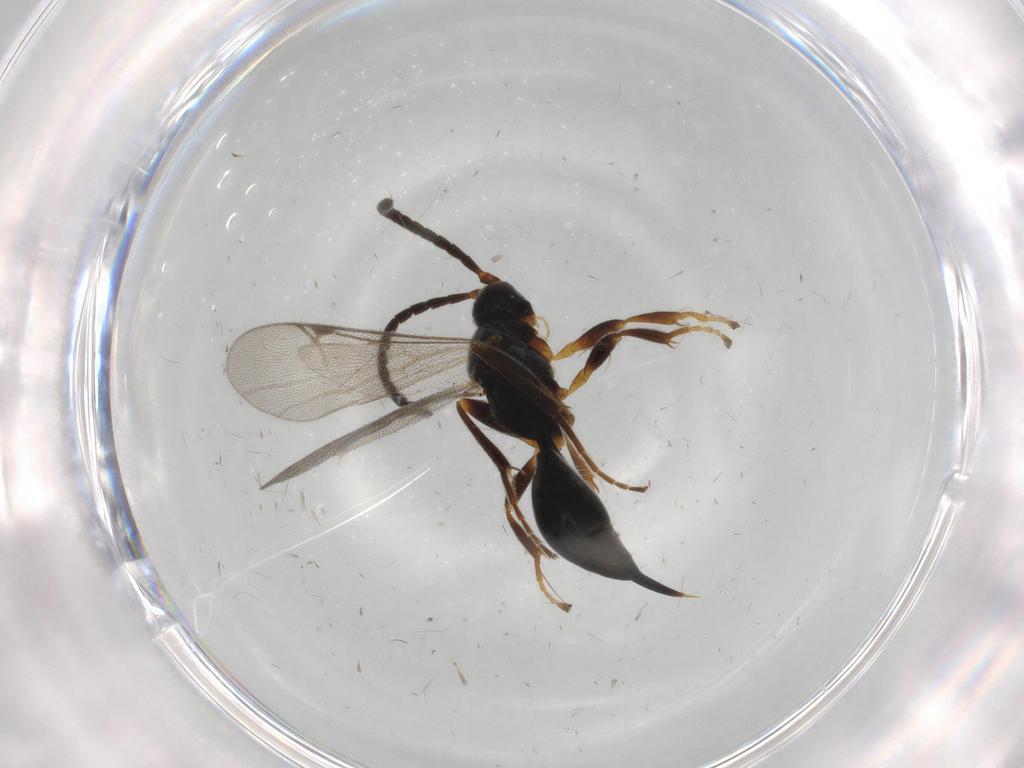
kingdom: Animalia
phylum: Arthropoda
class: Insecta
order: Hymenoptera
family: Proctotrupidae
